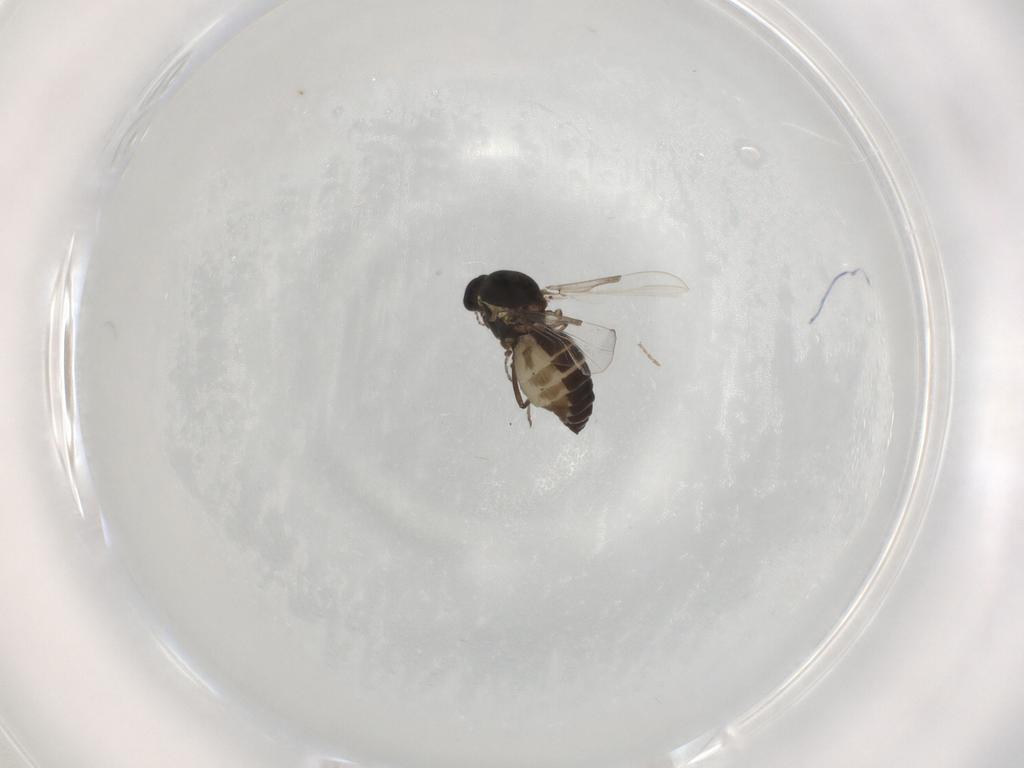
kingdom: Animalia
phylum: Arthropoda
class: Insecta
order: Diptera
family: Ceratopogonidae
